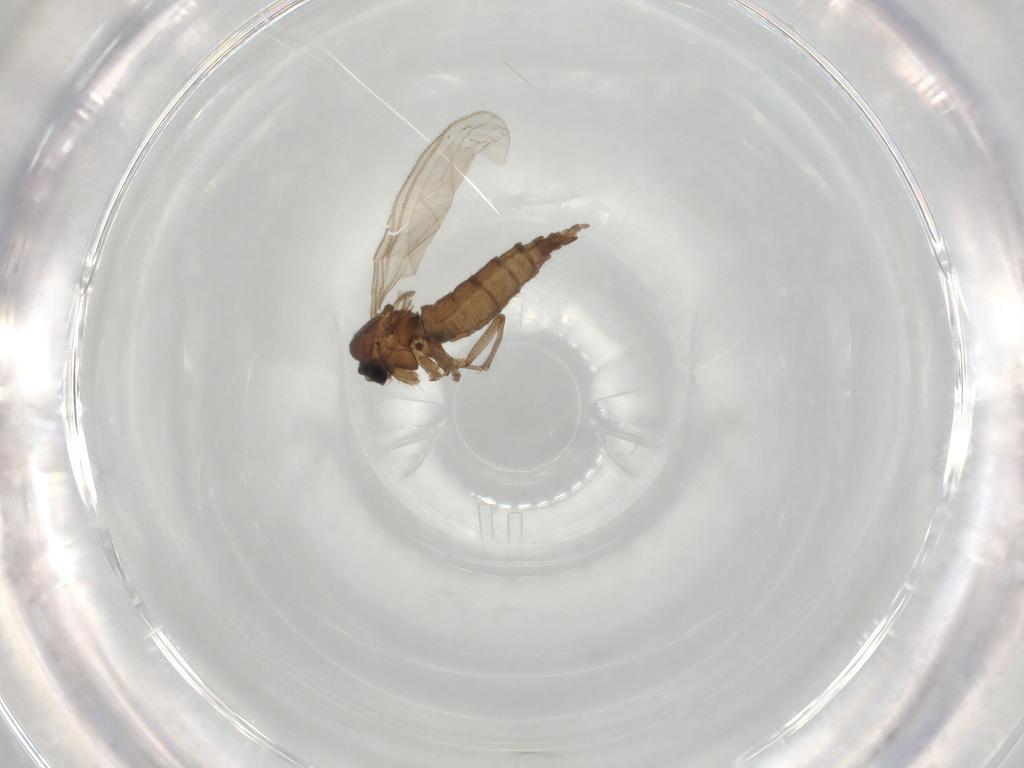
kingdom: Animalia
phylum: Arthropoda
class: Insecta
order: Diptera
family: Sciaridae
